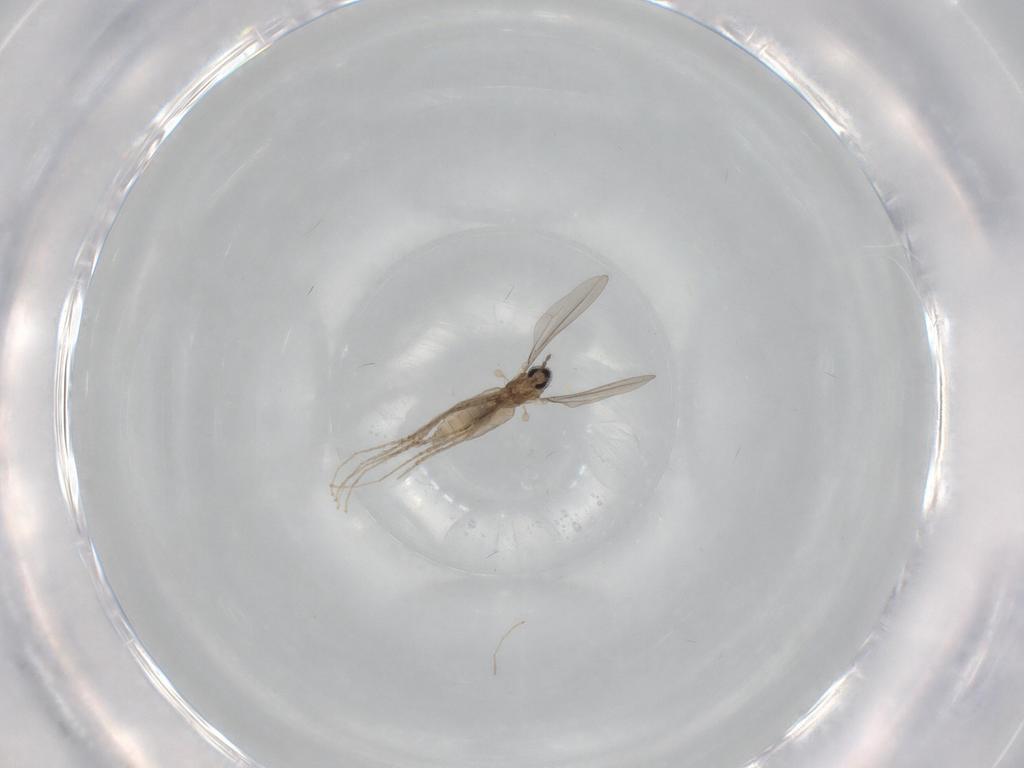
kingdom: Animalia
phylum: Arthropoda
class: Insecta
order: Diptera
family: Cecidomyiidae
